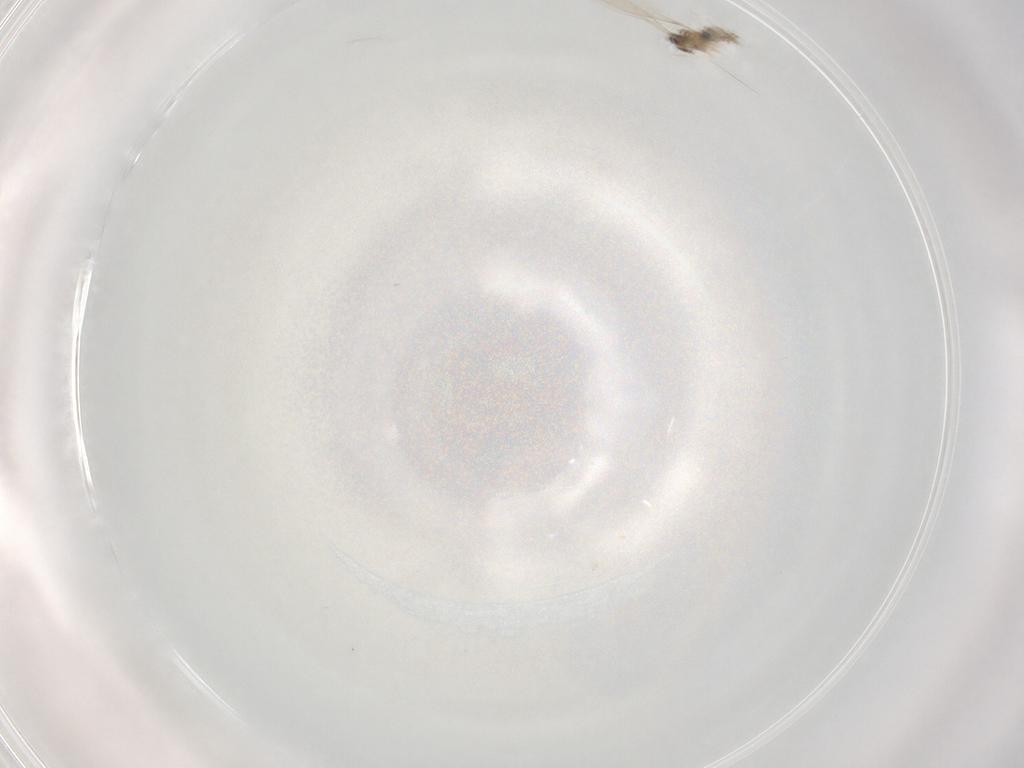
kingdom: Animalia
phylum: Arthropoda
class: Insecta
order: Diptera
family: Cecidomyiidae
